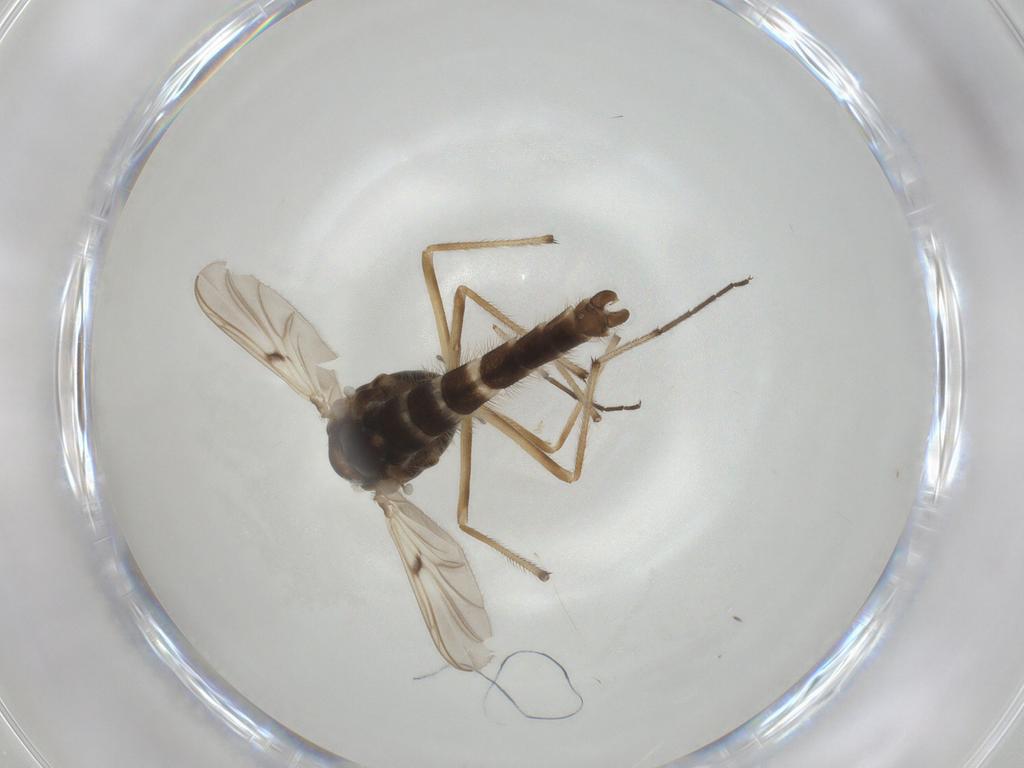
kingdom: Animalia
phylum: Arthropoda
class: Insecta
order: Diptera
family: Chironomidae
